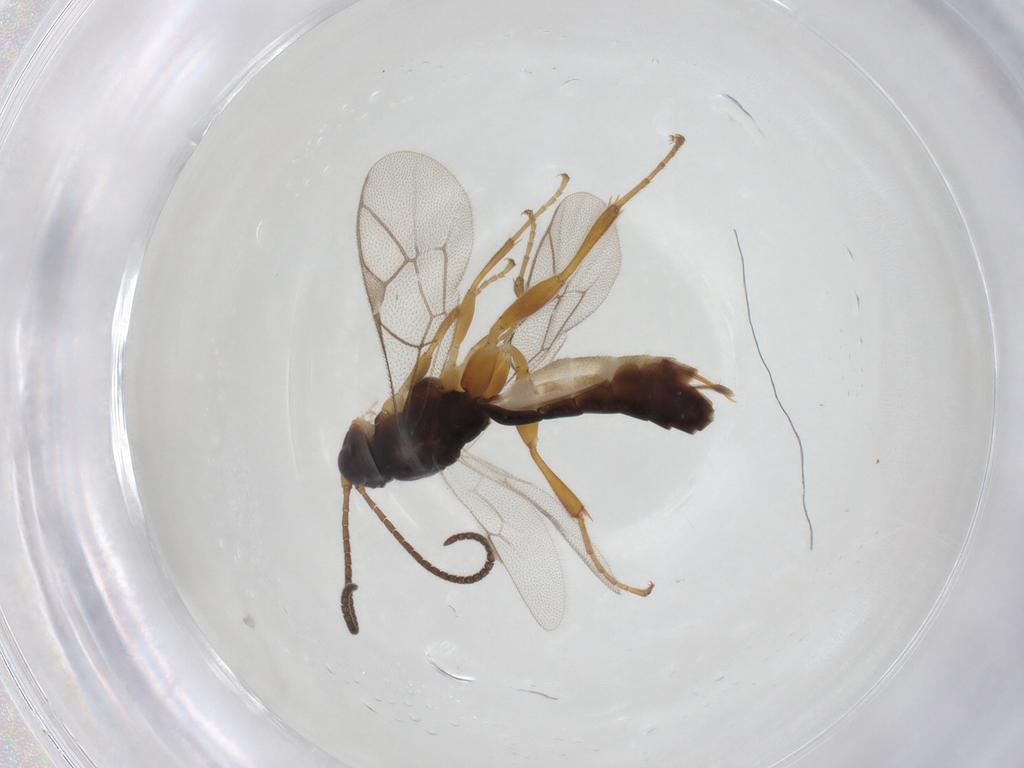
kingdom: Animalia
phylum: Arthropoda
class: Insecta
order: Hymenoptera
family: Ichneumonidae
